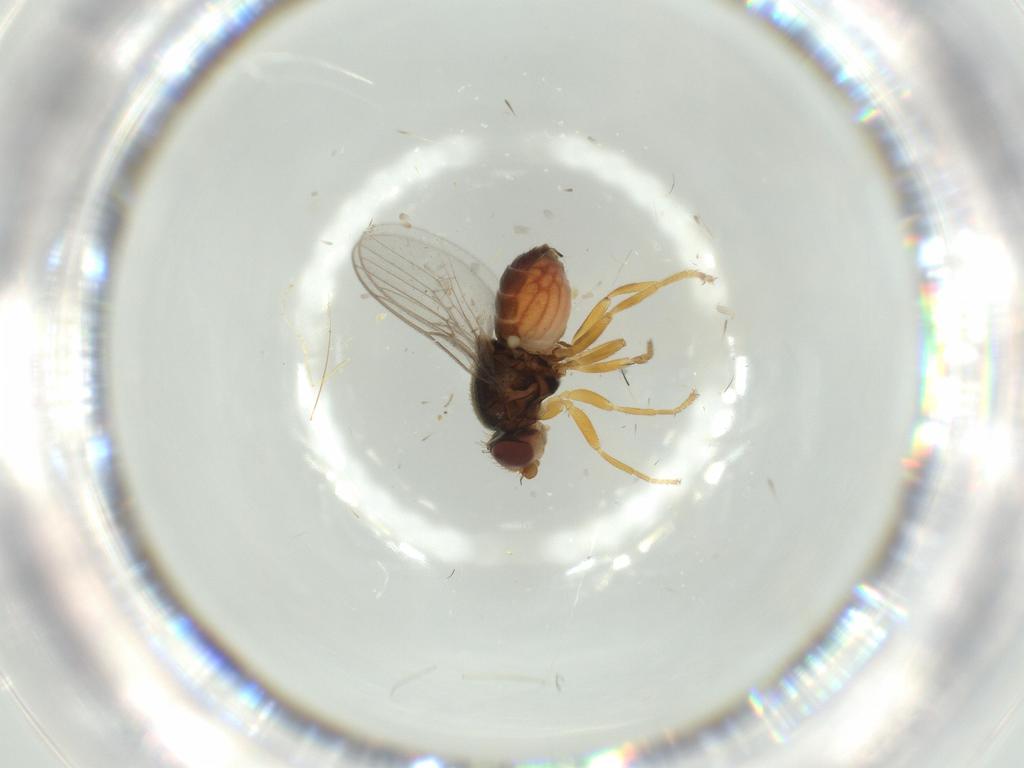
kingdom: Animalia
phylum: Arthropoda
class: Insecta
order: Diptera
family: Chloropidae
